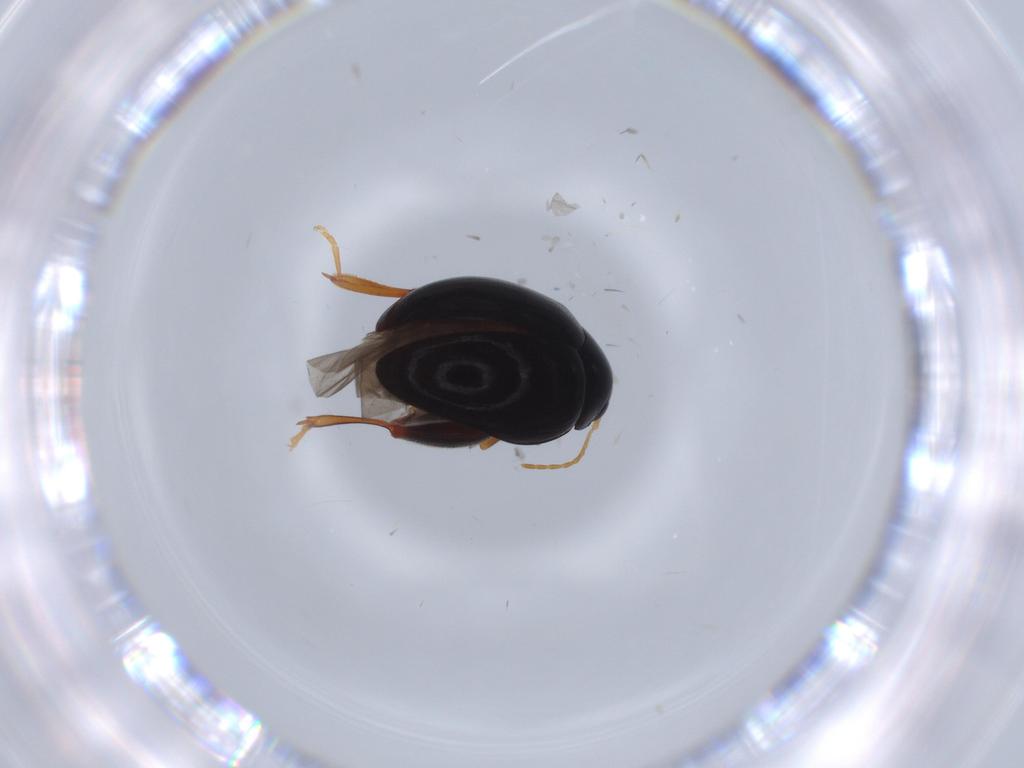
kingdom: Animalia
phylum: Arthropoda
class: Insecta
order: Coleoptera
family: Chrysomelidae
